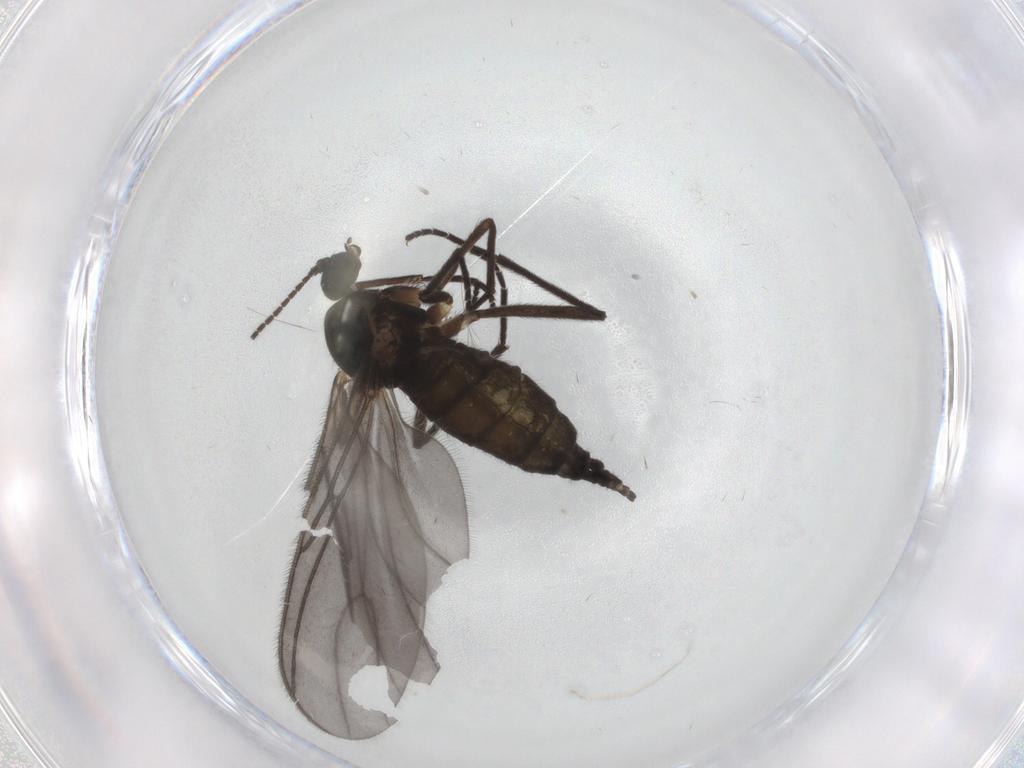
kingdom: Animalia
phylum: Arthropoda
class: Insecta
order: Diptera
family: Sciaridae
